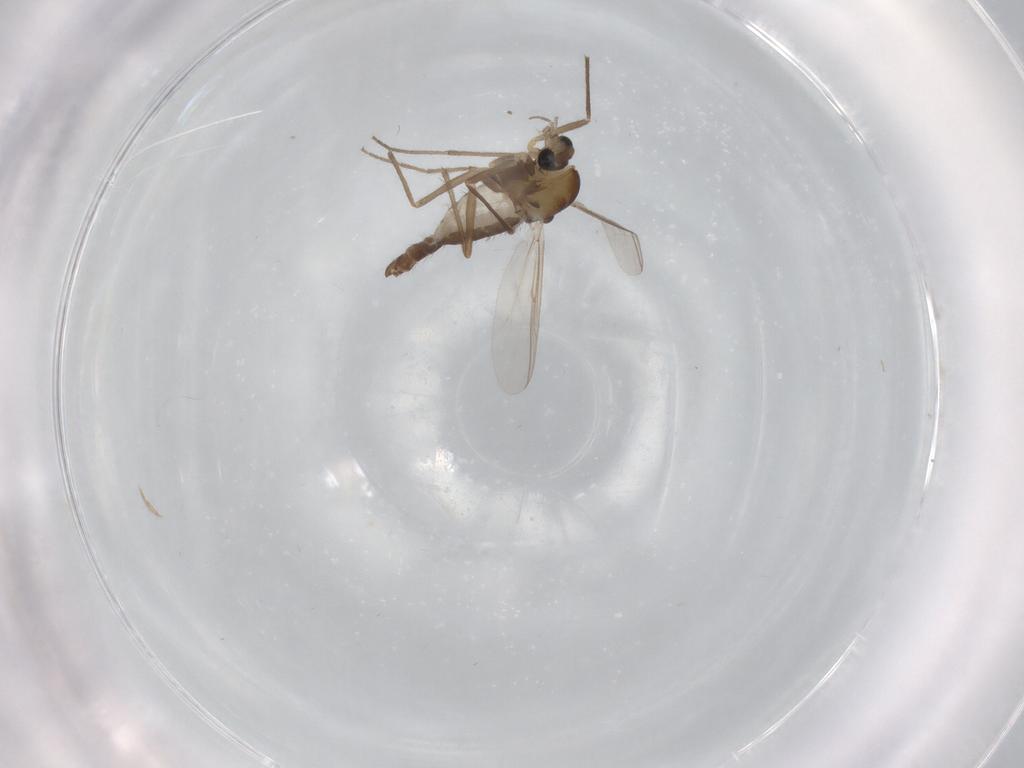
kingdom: Animalia
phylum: Arthropoda
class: Insecta
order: Diptera
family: Chironomidae
